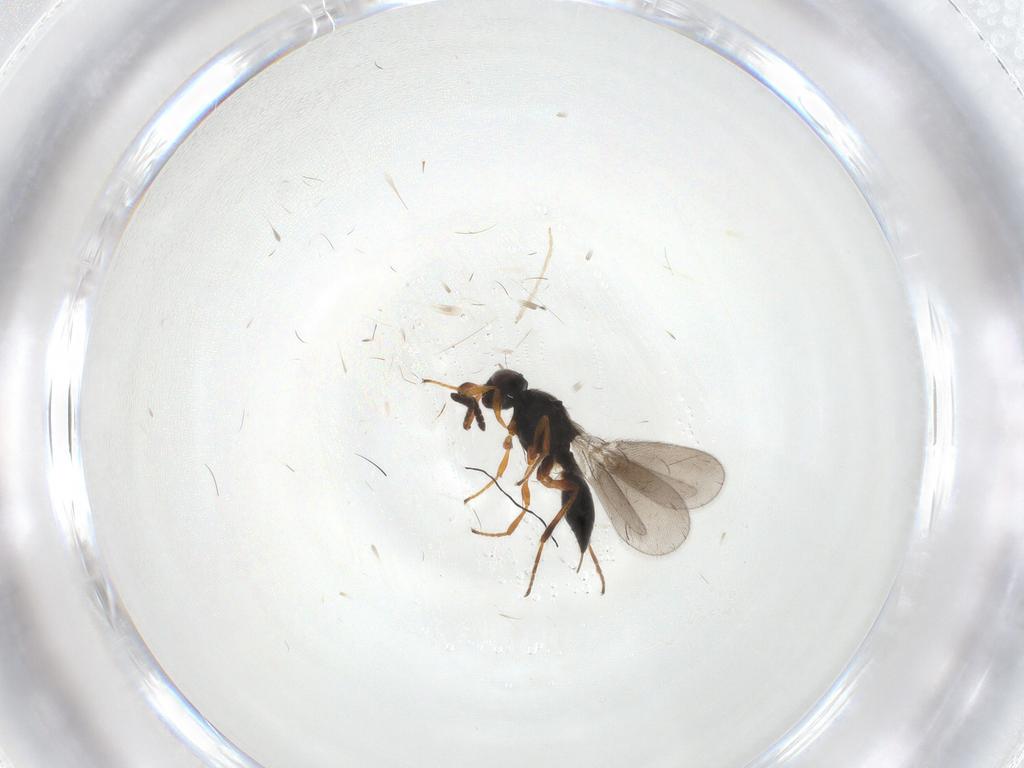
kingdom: Animalia
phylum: Arthropoda
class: Insecta
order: Hymenoptera
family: Platygastridae
